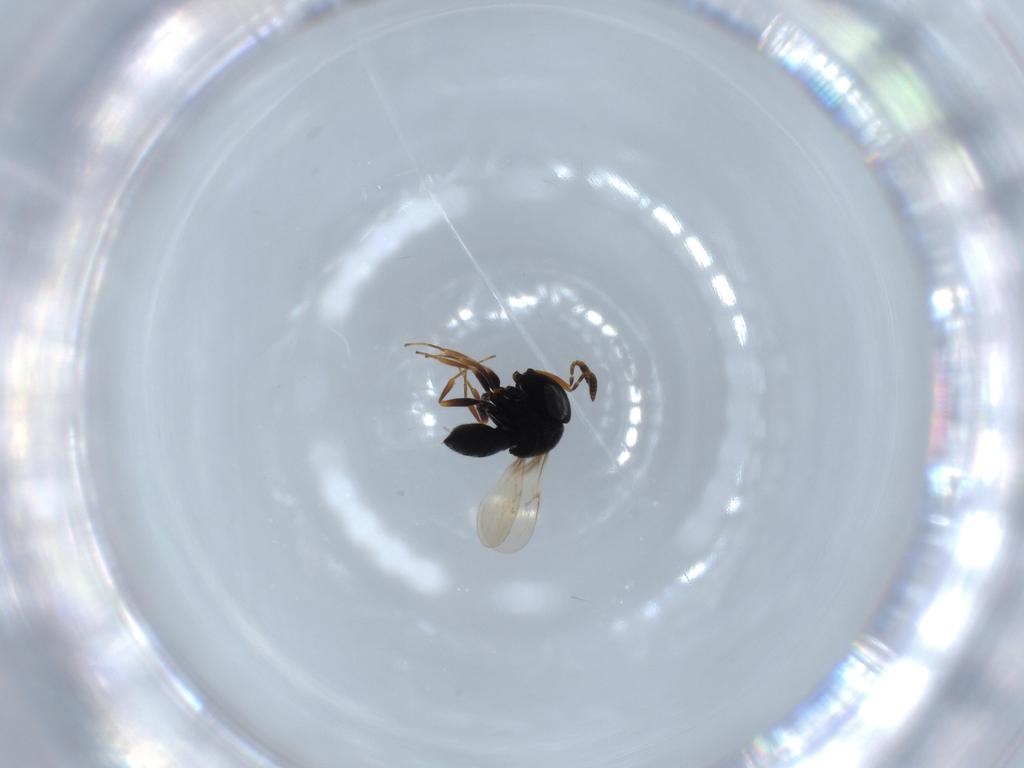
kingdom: Animalia
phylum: Arthropoda
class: Insecta
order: Hymenoptera
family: Scelionidae
